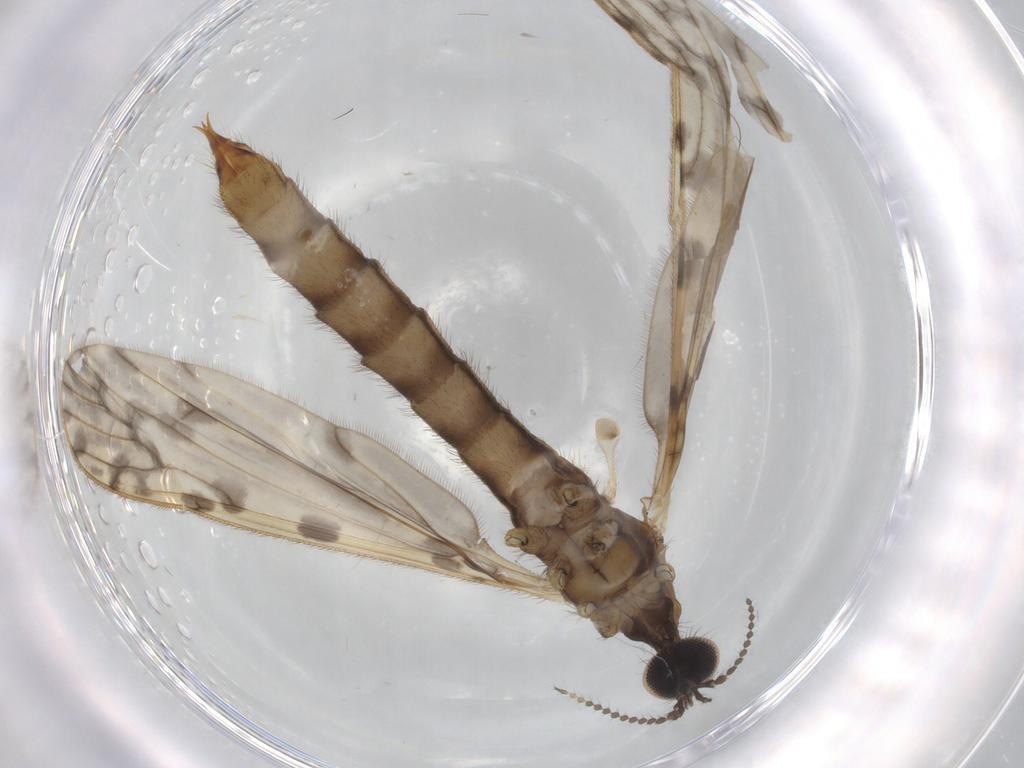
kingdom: Animalia
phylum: Arthropoda
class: Insecta
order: Diptera
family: Limoniidae
